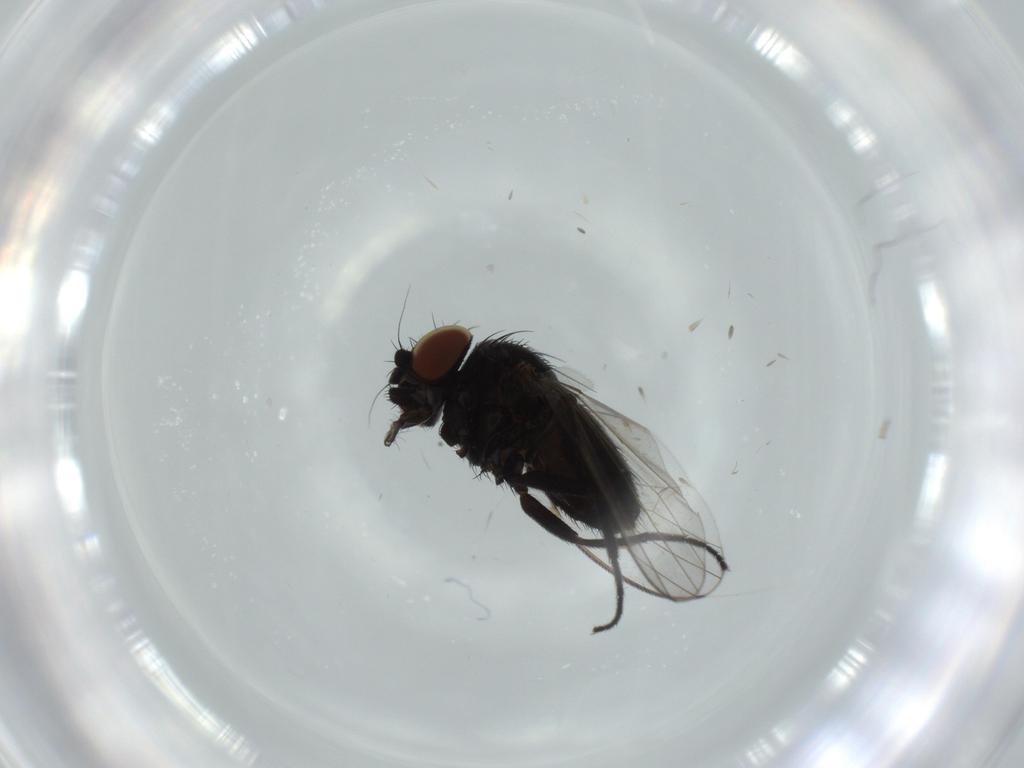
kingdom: Animalia
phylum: Arthropoda
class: Insecta
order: Diptera
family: Milichiidae
